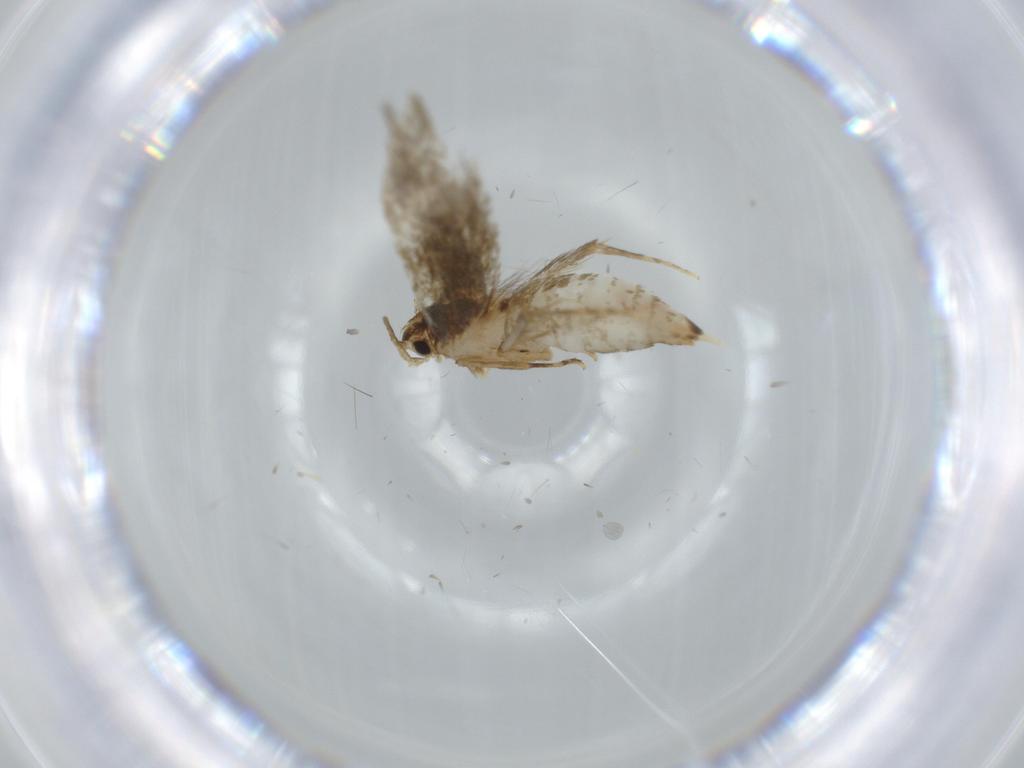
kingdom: Animalia
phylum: Arthropoda
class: Insecta
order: Lepidoptera
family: Tineidae
